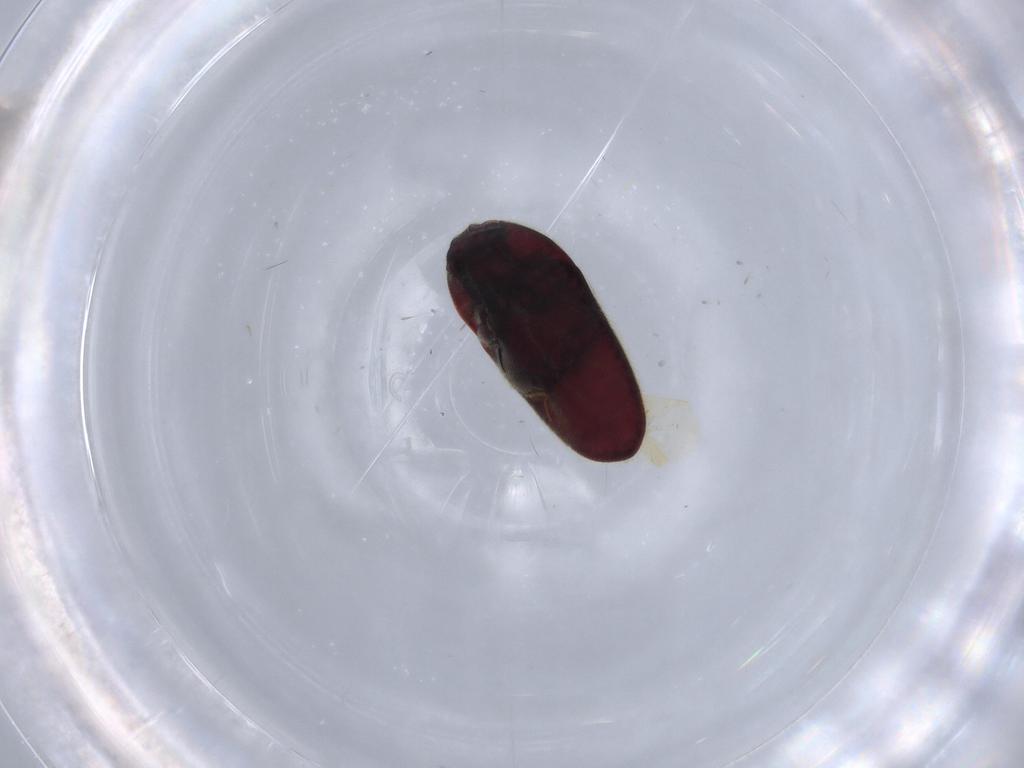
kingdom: Animalia
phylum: Arthropoda
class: Insecta
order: Coleoptera
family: Throscidae
